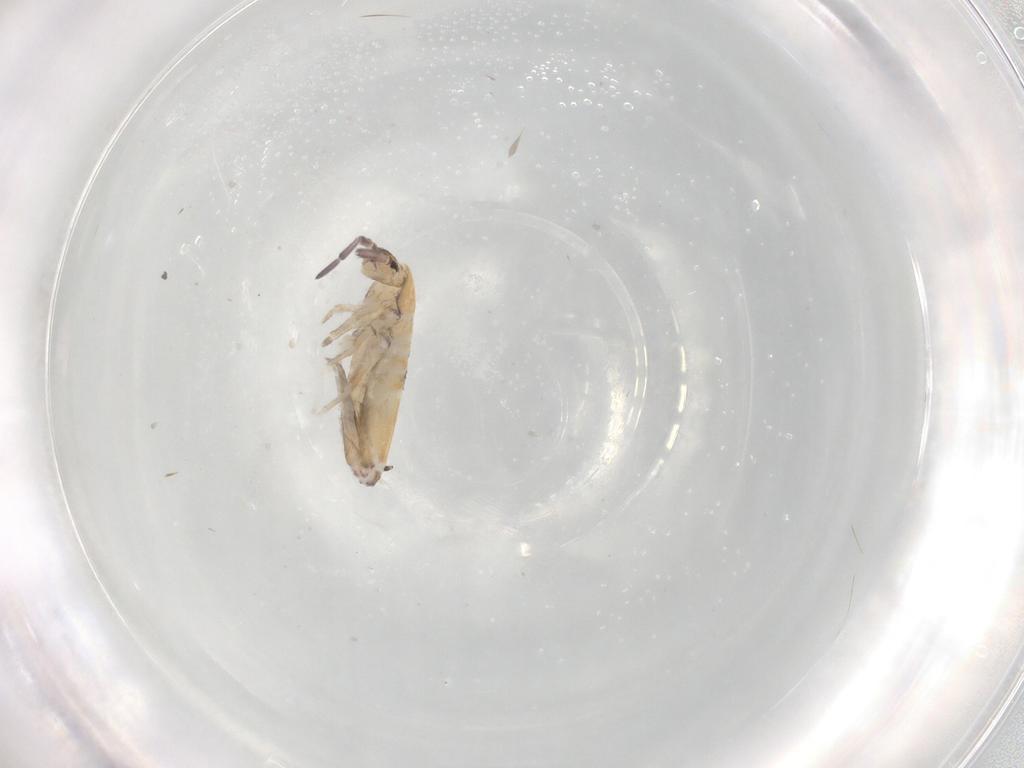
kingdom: Animalia
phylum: Arthropoda
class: Collembola
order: Entomobryomorpha
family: Entomobryidae
